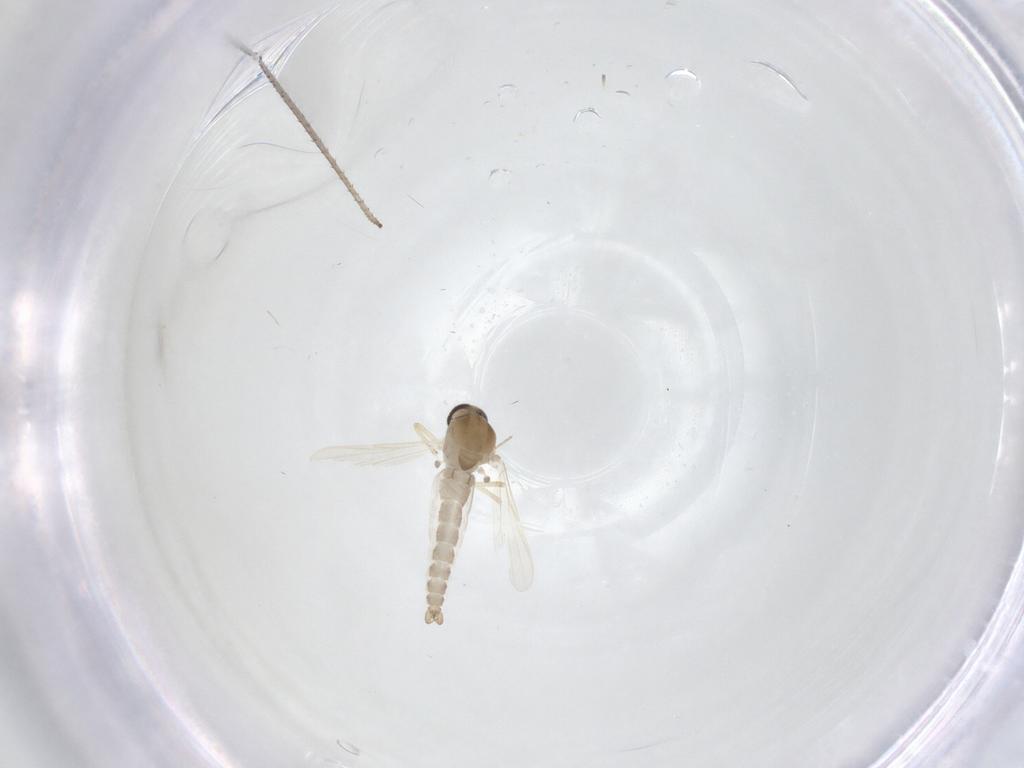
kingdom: Animalia
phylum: Arthropoda
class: Insecta
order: Diptera
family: Ceratopogonidae
